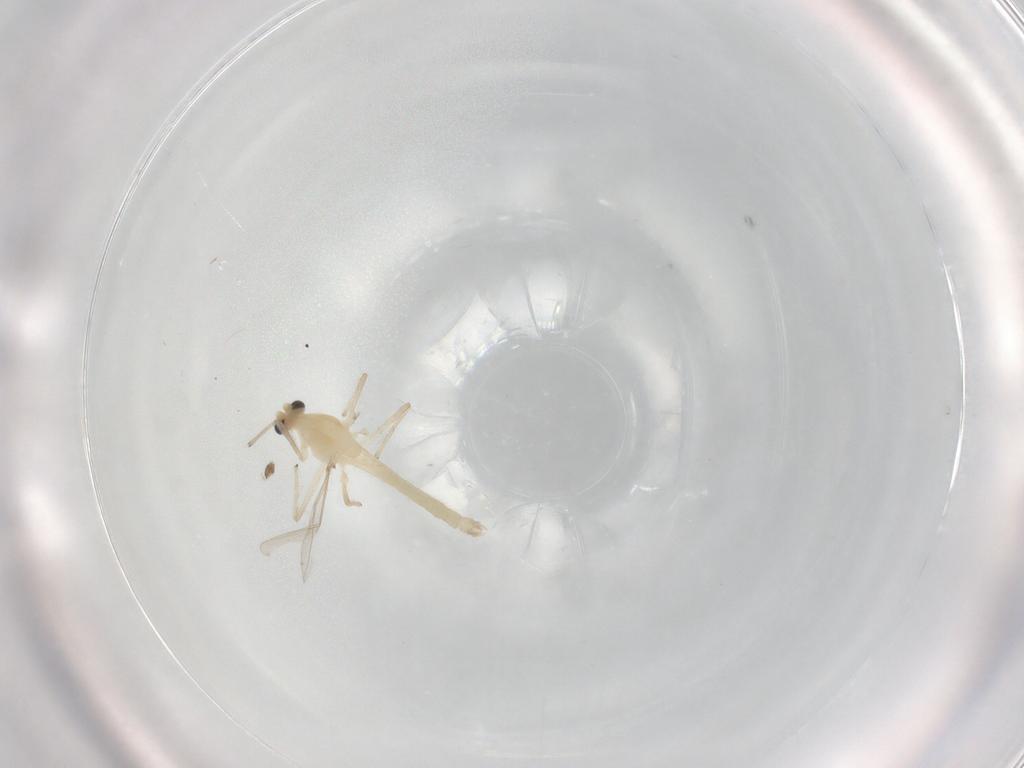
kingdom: Animalia
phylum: Arthropoda
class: Insecta
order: Diptera
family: Chironomidae
